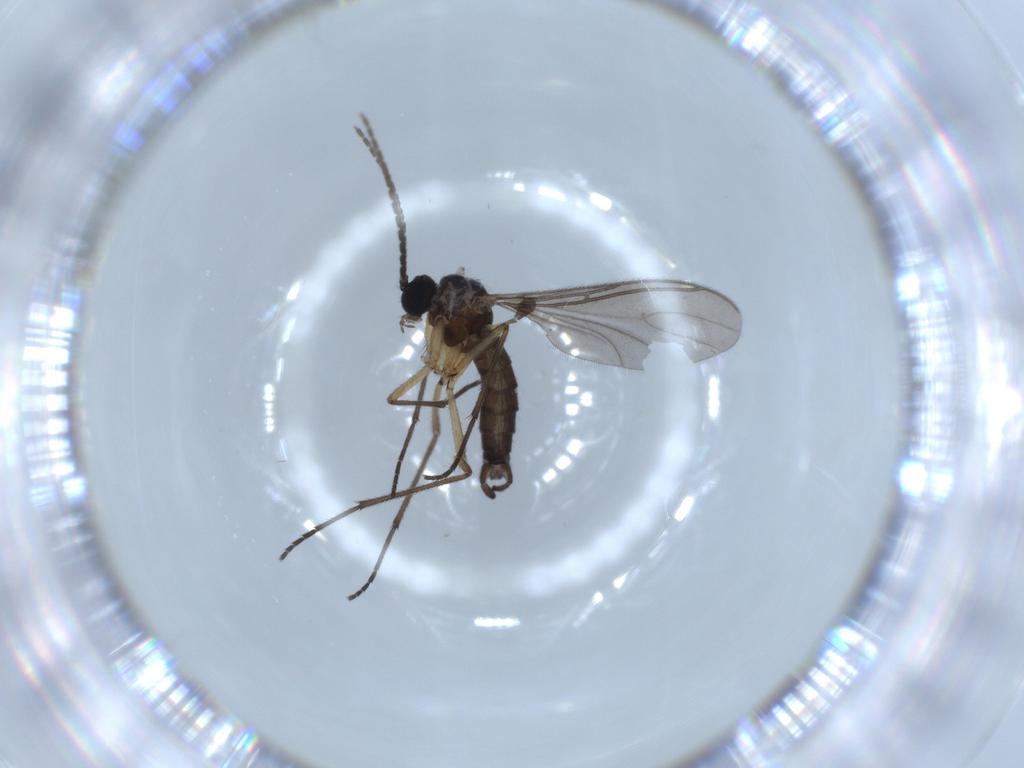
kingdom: Animalia
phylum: Arthropoda
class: Insecta
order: Diptera
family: Sciaridae
